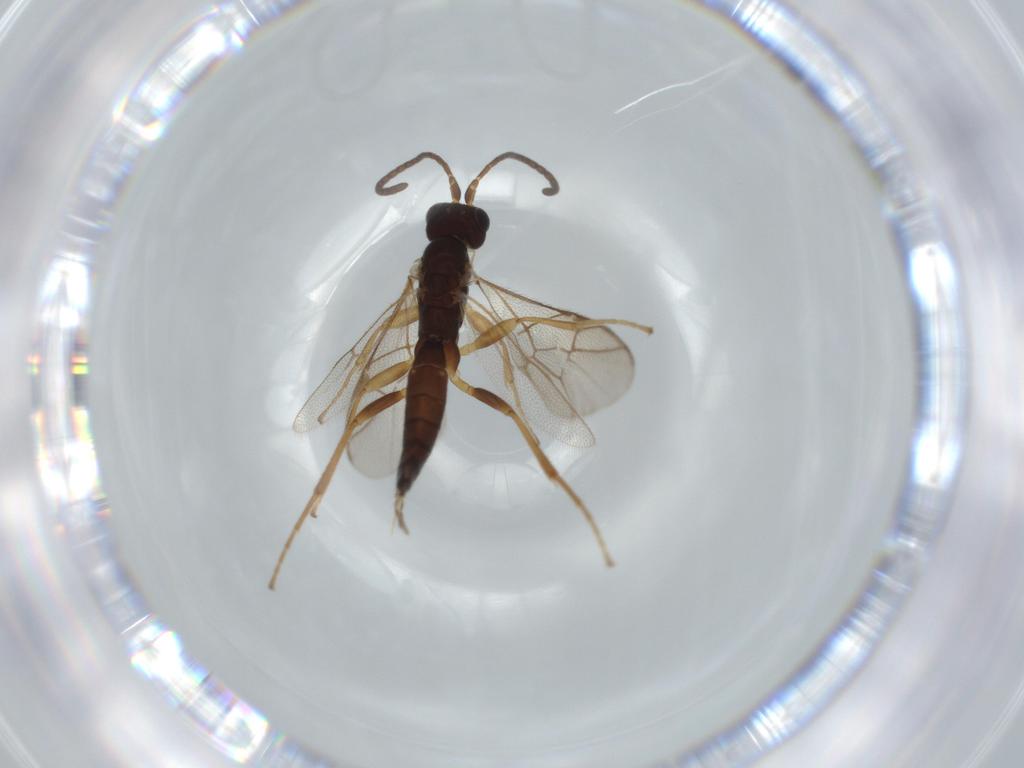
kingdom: Animalia
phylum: Arthropoda
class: Insecta
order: Hymenoptera
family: Ichneumonidae
